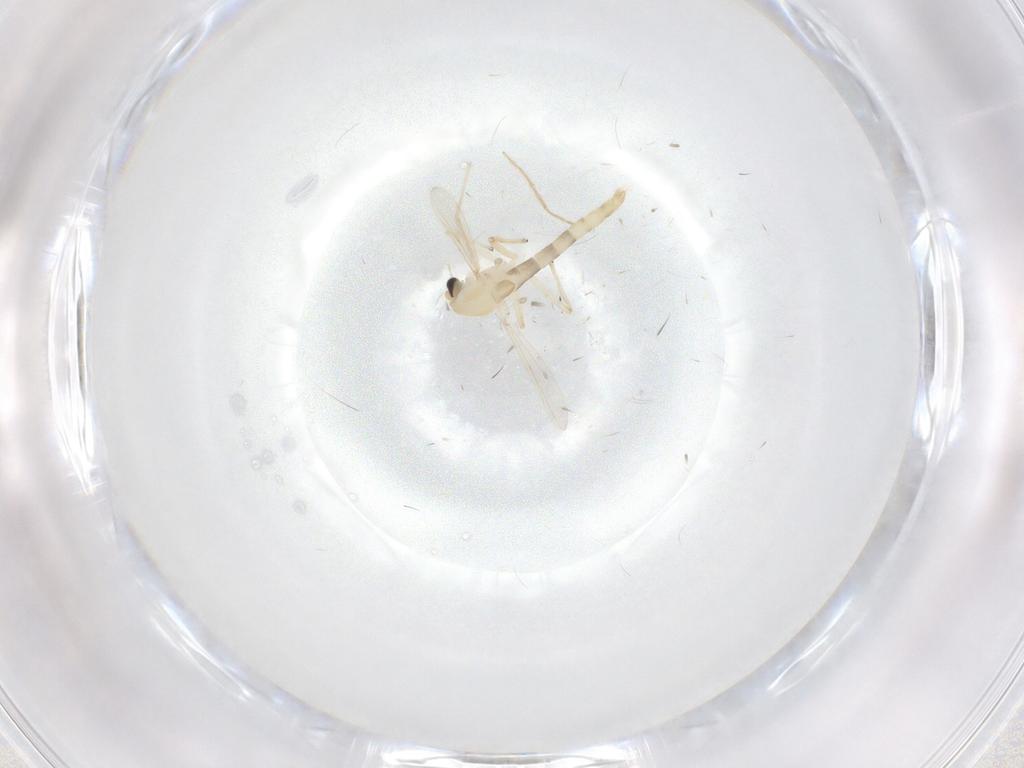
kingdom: Animalia
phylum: Arthropoda
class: Insecta
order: Diptera
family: Chironomidae
